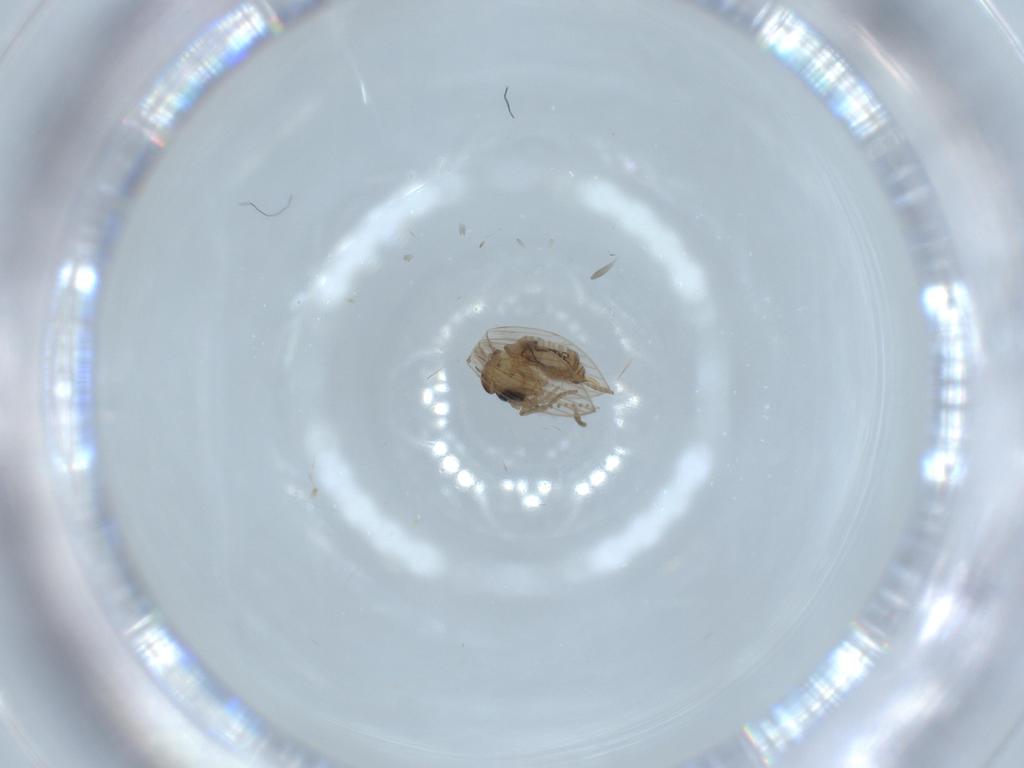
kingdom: Animalia
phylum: Arthropoda
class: Insecta
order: Diptera
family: Psychodidae
